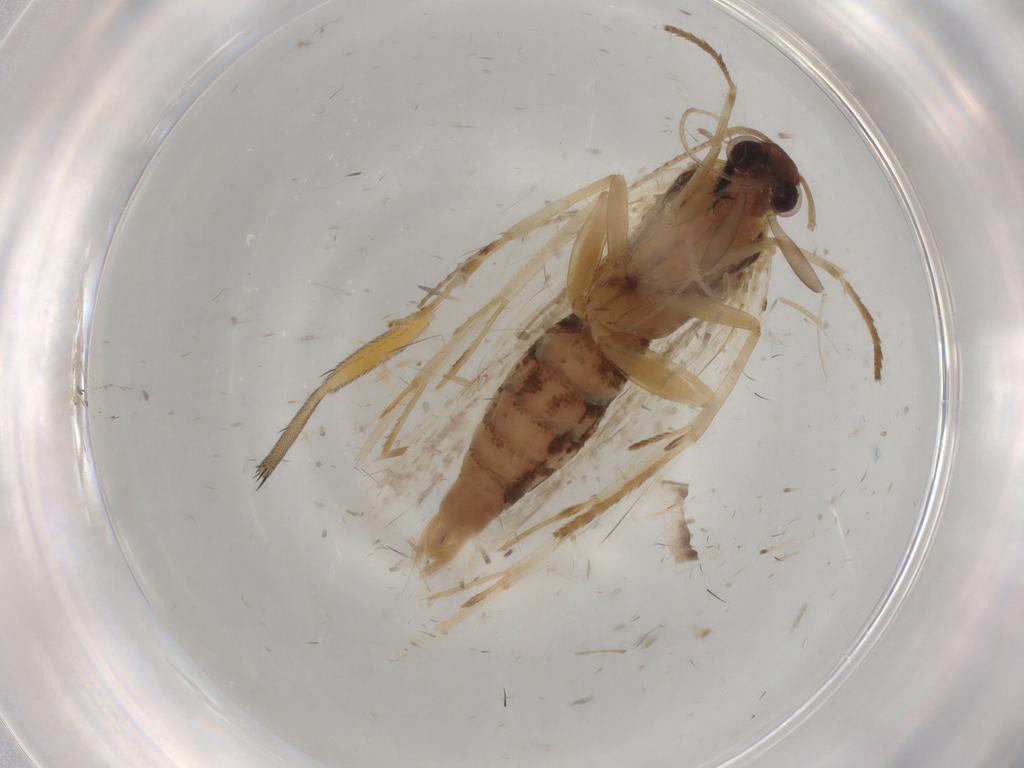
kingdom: Animalia
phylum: Arthropoda
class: Insecta
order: Lepidoptera
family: Gelechiidae
